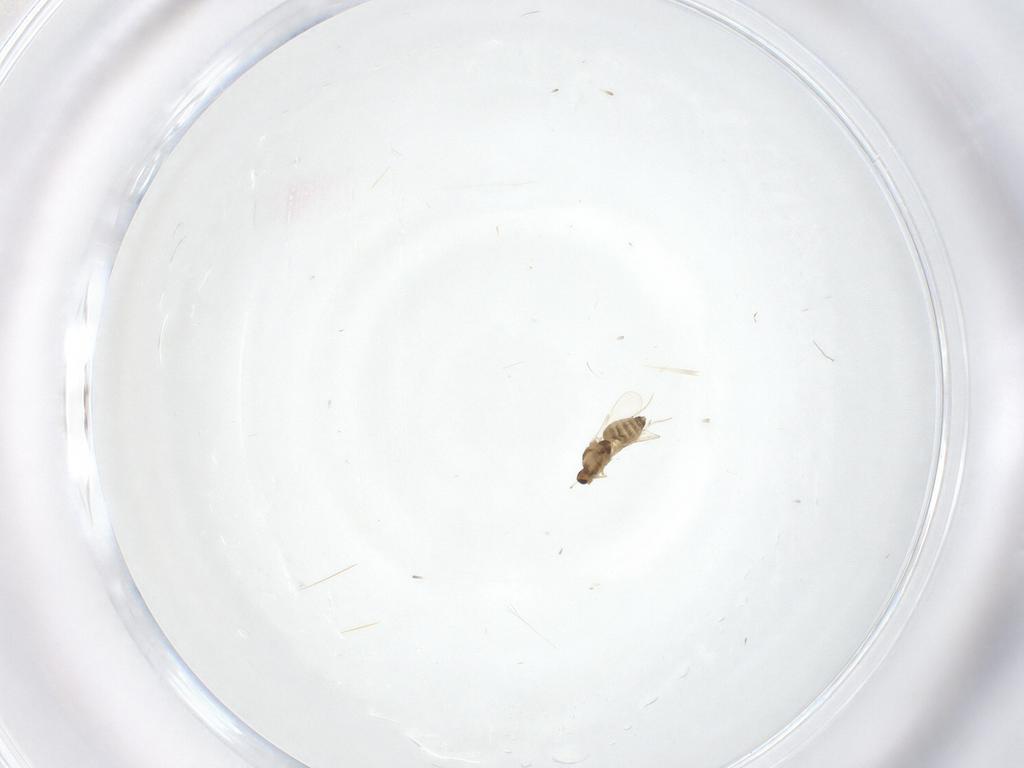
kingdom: Animalia
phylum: Arthropoda
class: Insecta
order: Diptera
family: Chironomidae
